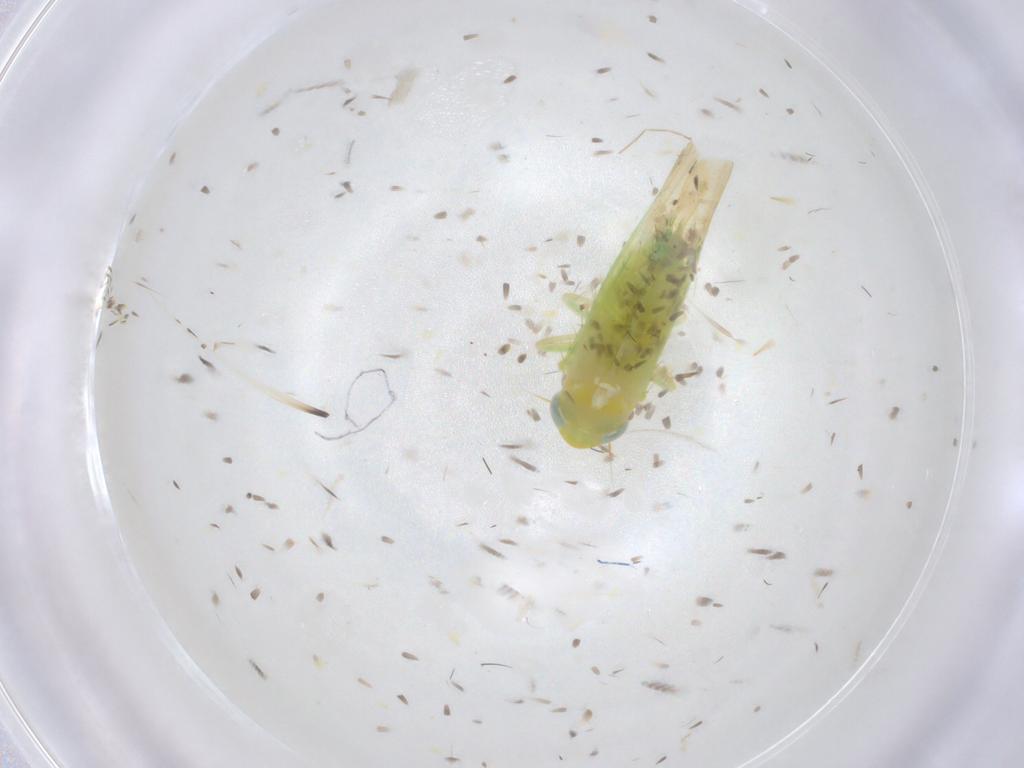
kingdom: Animalia
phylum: Arthropoda
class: Insecta
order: Hemiptera
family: Cicadellidae
